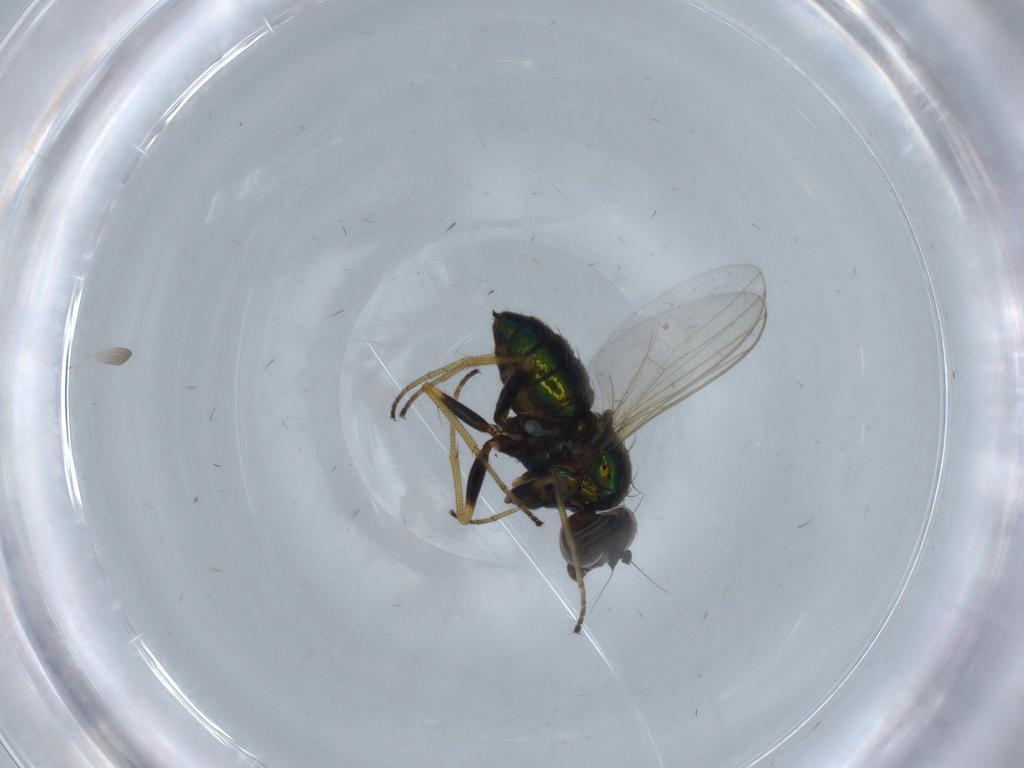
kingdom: Animalia
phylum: Arthropoda
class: Insecta
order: Diptera
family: Dolichopodidae
